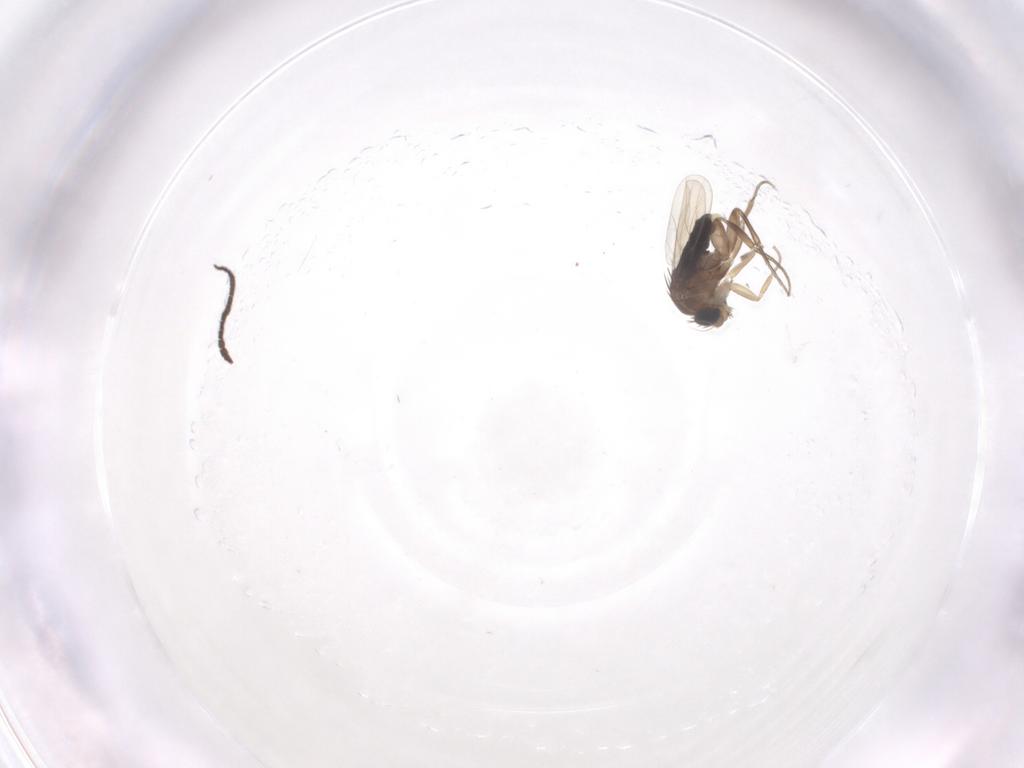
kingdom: Animalia
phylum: Arthropoda
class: Insecta
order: Diptera
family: Phoridae
